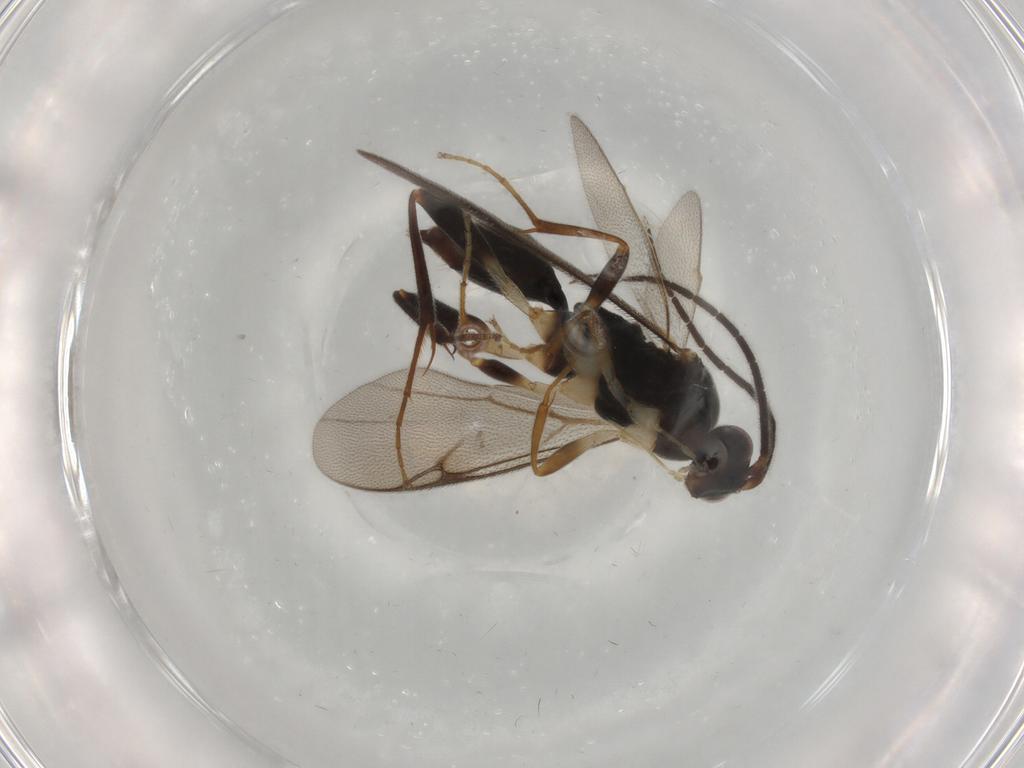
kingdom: Animalia
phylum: Arthropoda
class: Insecta
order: Hymenoptera
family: Proctotrupidae
